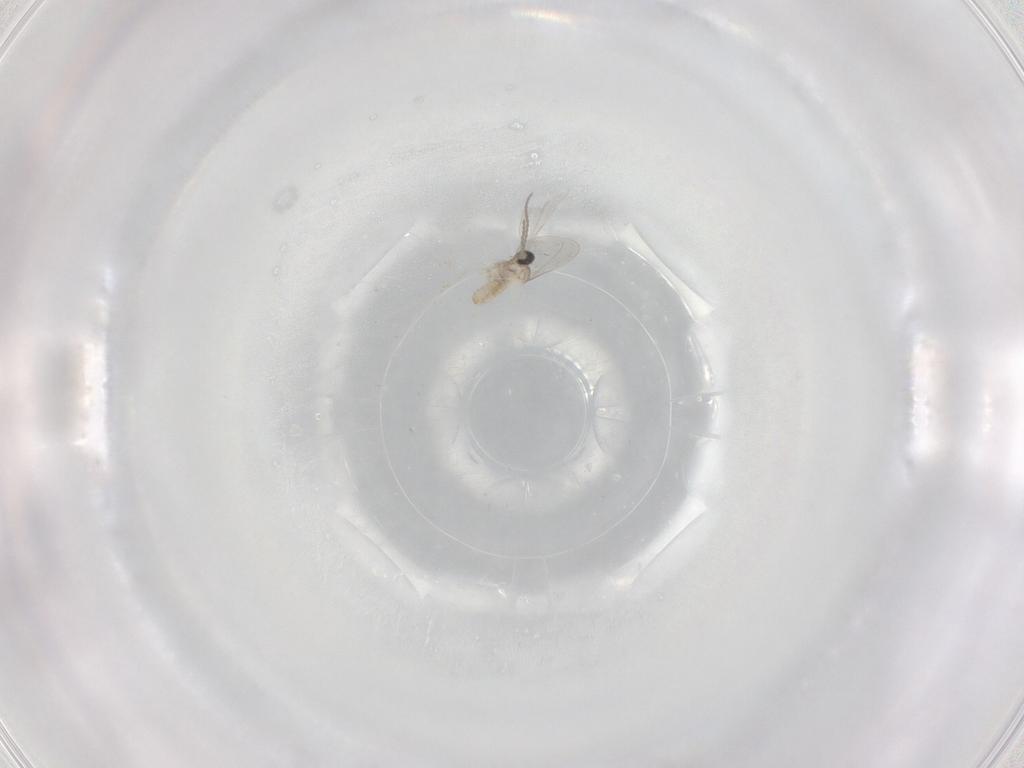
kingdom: Animalia
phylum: Arthropoda
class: Insecta
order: Diptera
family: Cecidomyiidae
